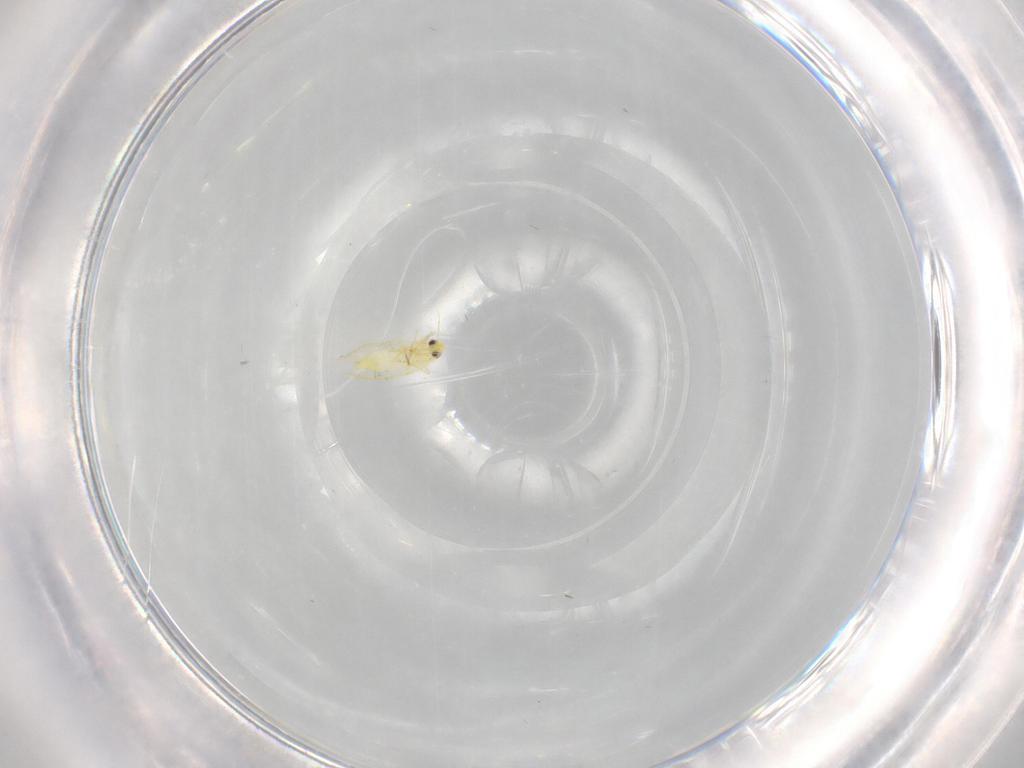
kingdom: Animalia
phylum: Arthropoda
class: Insecta
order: Hemiptera
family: Aleyrodidae
